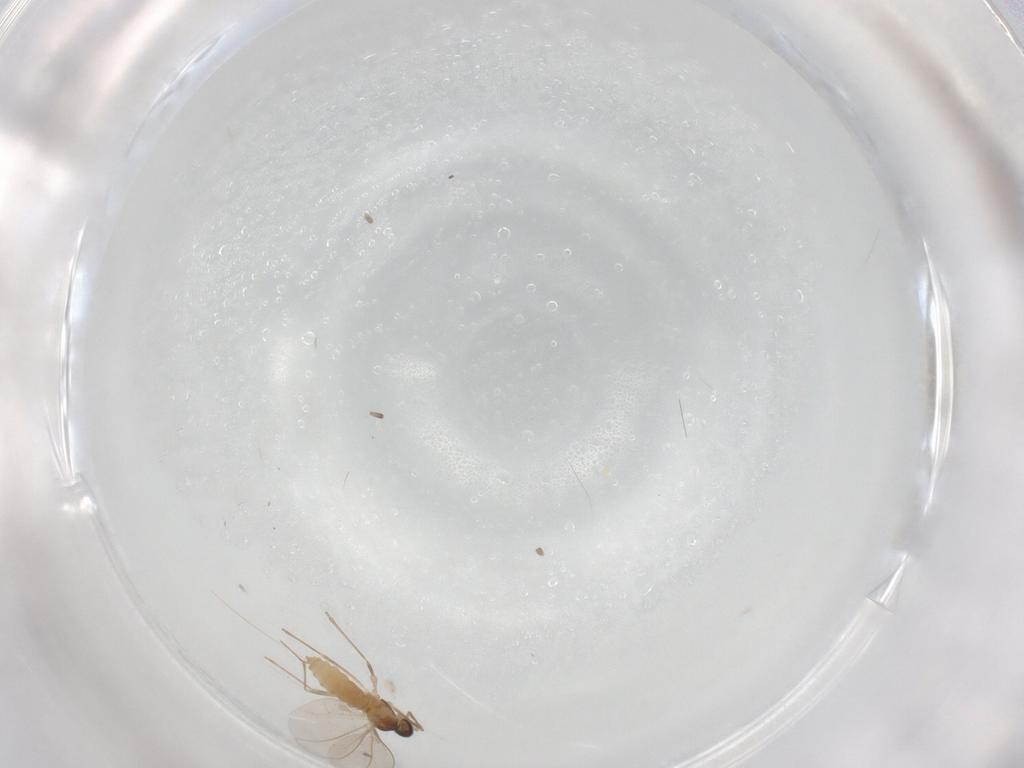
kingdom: Animalia
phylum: Arthropoda
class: Insecta
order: Diptera
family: Cecidomyiidae
